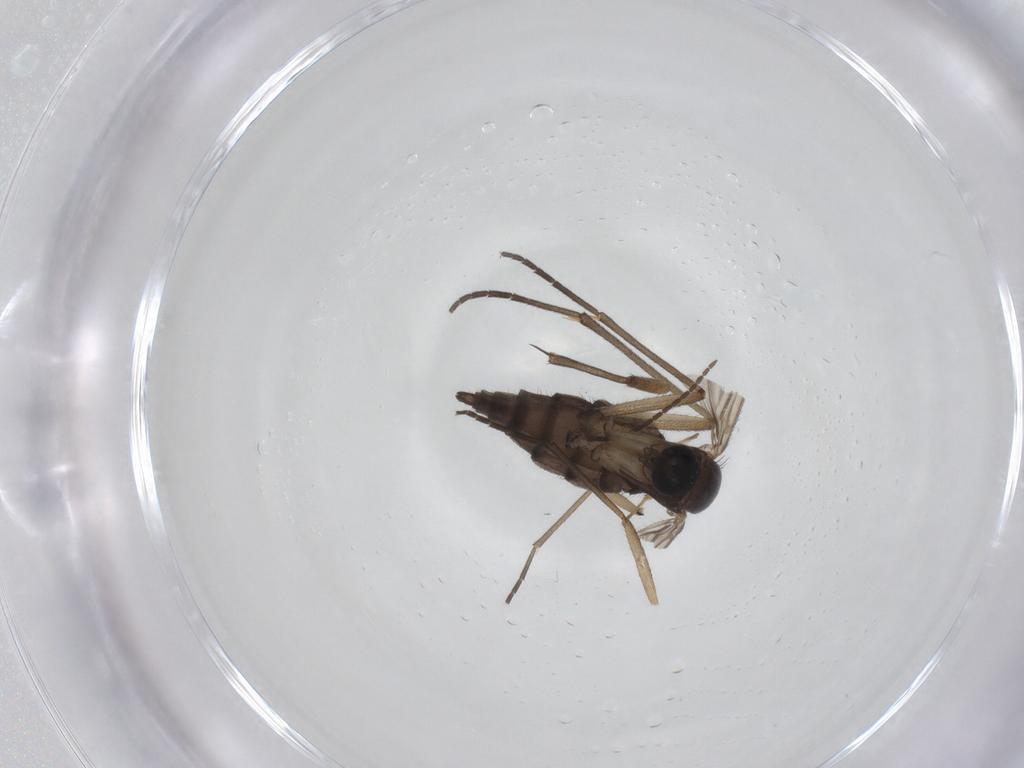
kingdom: Animalia
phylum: Arthropoda
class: Insecta
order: Diptera
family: Sciaridae
